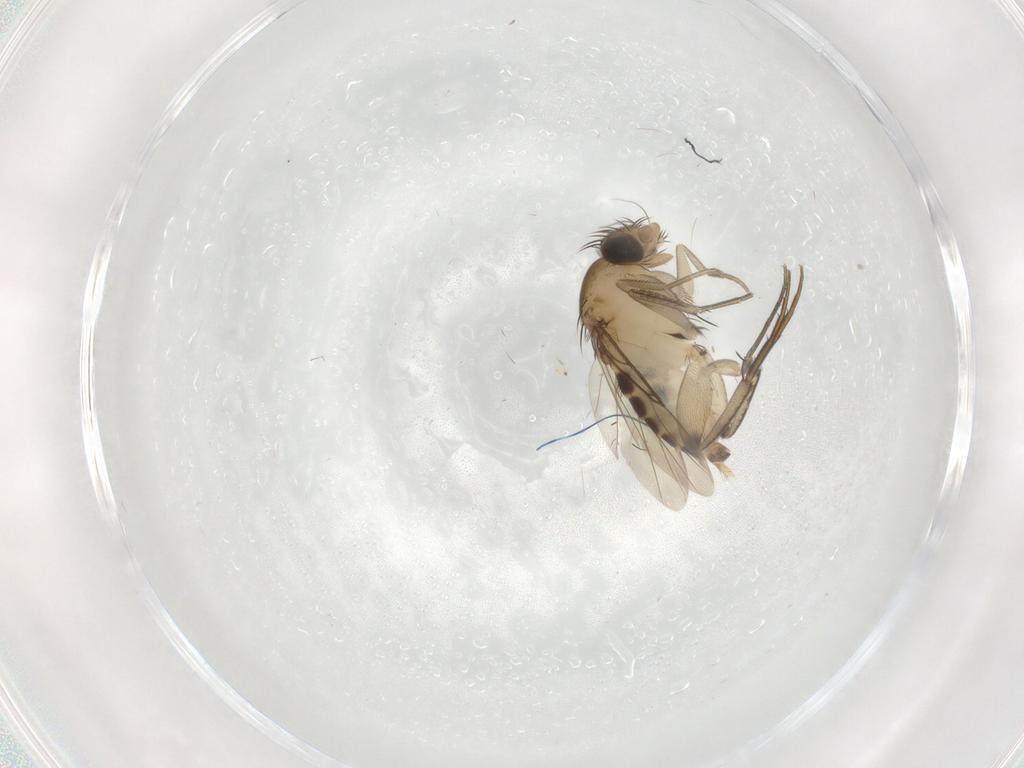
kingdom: Animalia
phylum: Arthropoda
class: Insecta
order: Diptera
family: Phoridae
